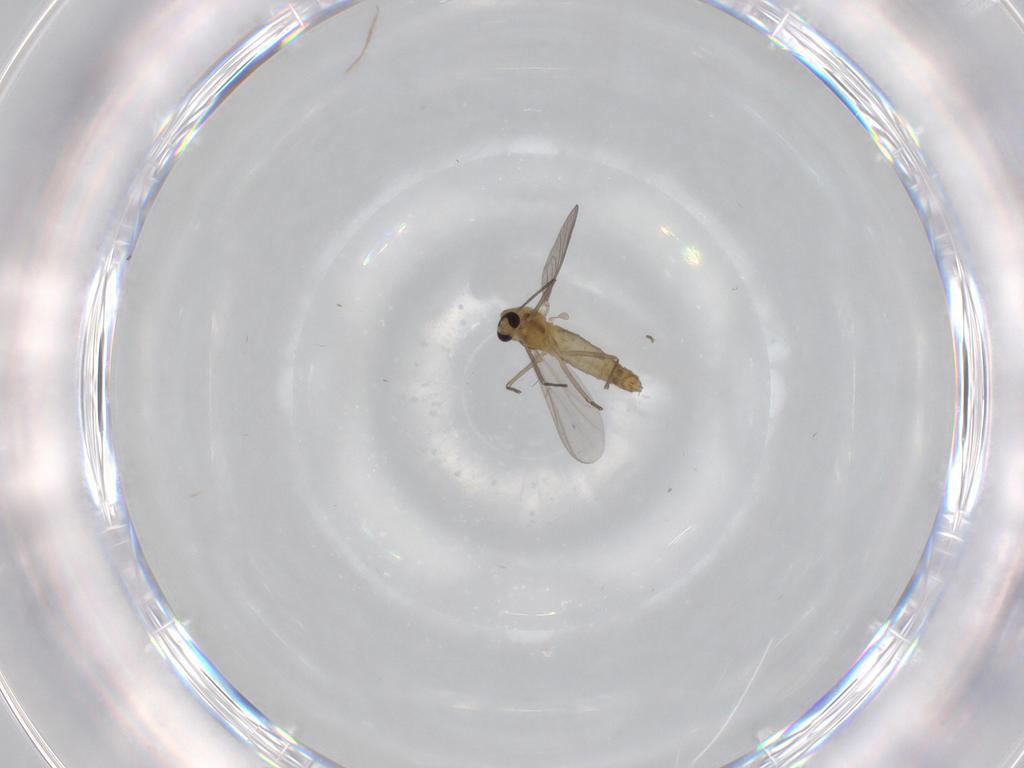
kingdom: Animalia
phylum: Arthropoda
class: Insecta
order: Diptera
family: Chironomidae
